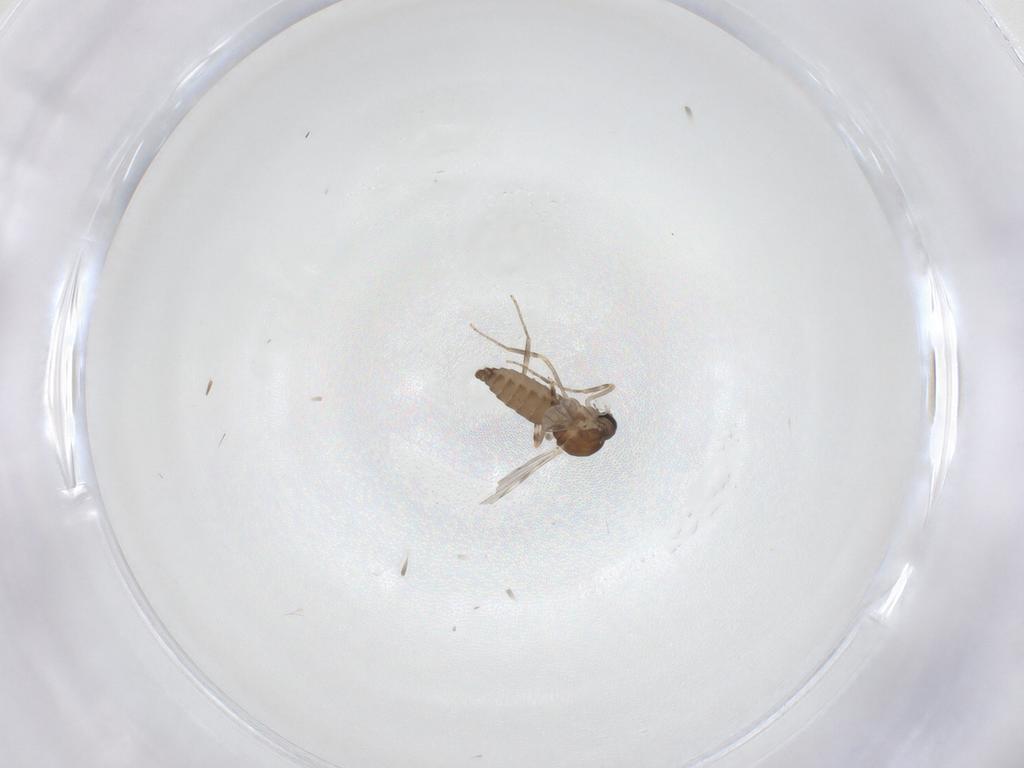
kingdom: Animalia
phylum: Arthropoda
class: Insecta
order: Diptera
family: Ceratopogonidae
